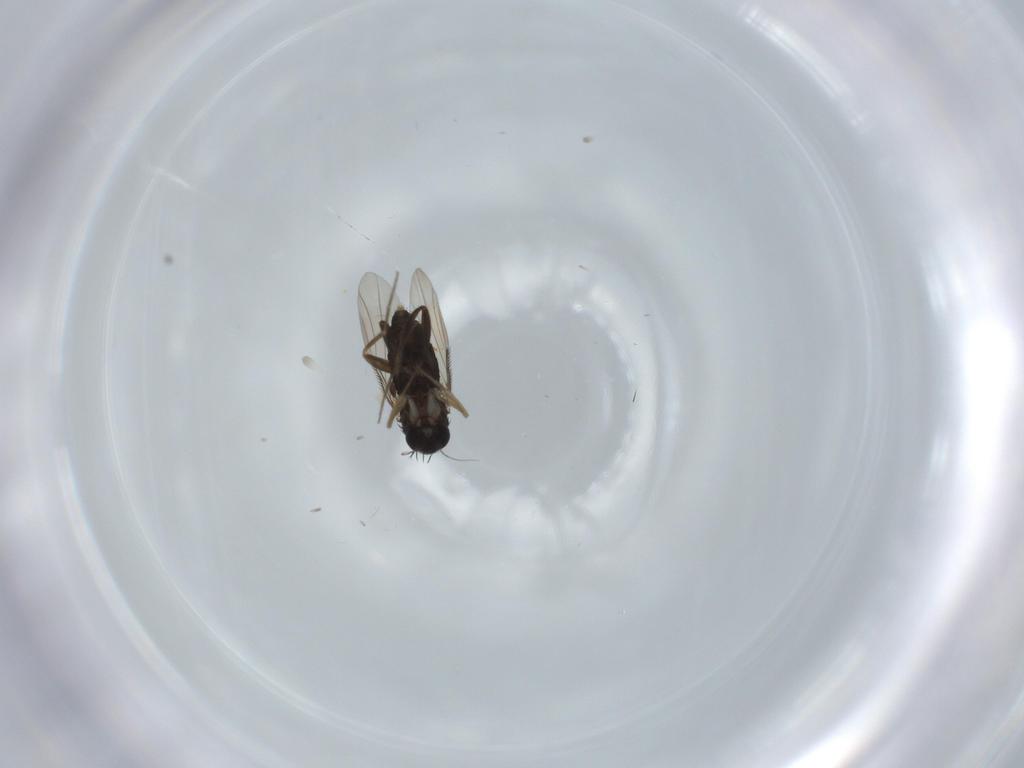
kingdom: Animalia
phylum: Arthropoda
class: Insecta
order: Diptera
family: Phoridae
